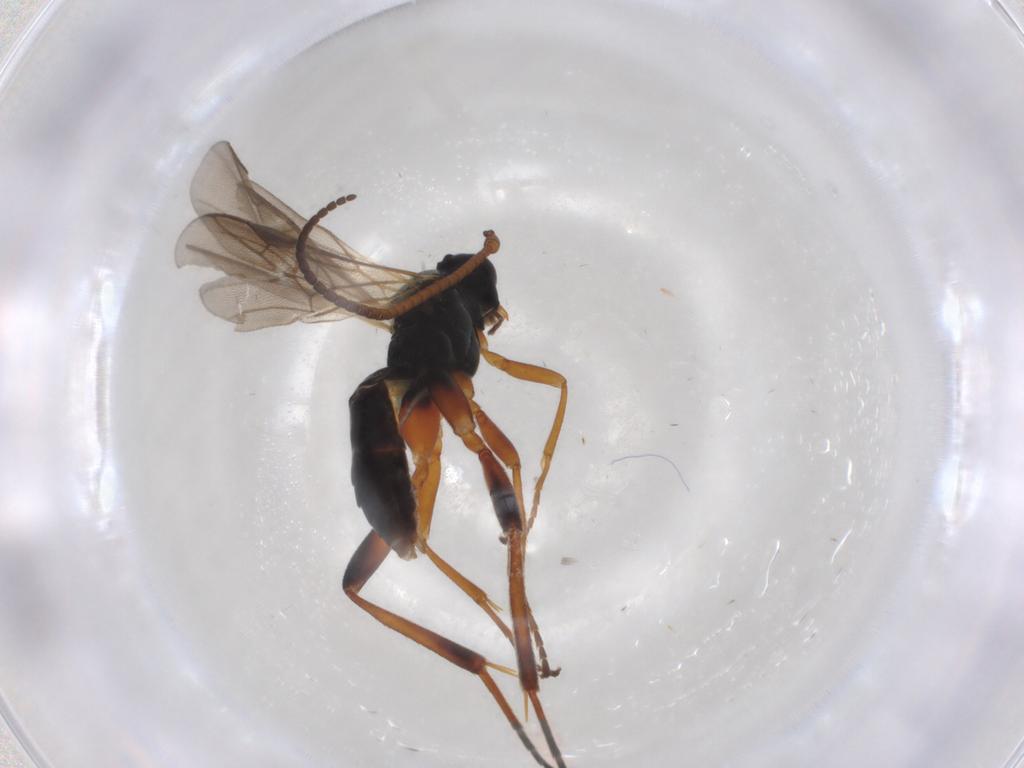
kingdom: Animalia
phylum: Arthropoda
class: Insecta
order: Hymenoptera
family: Braconidae
